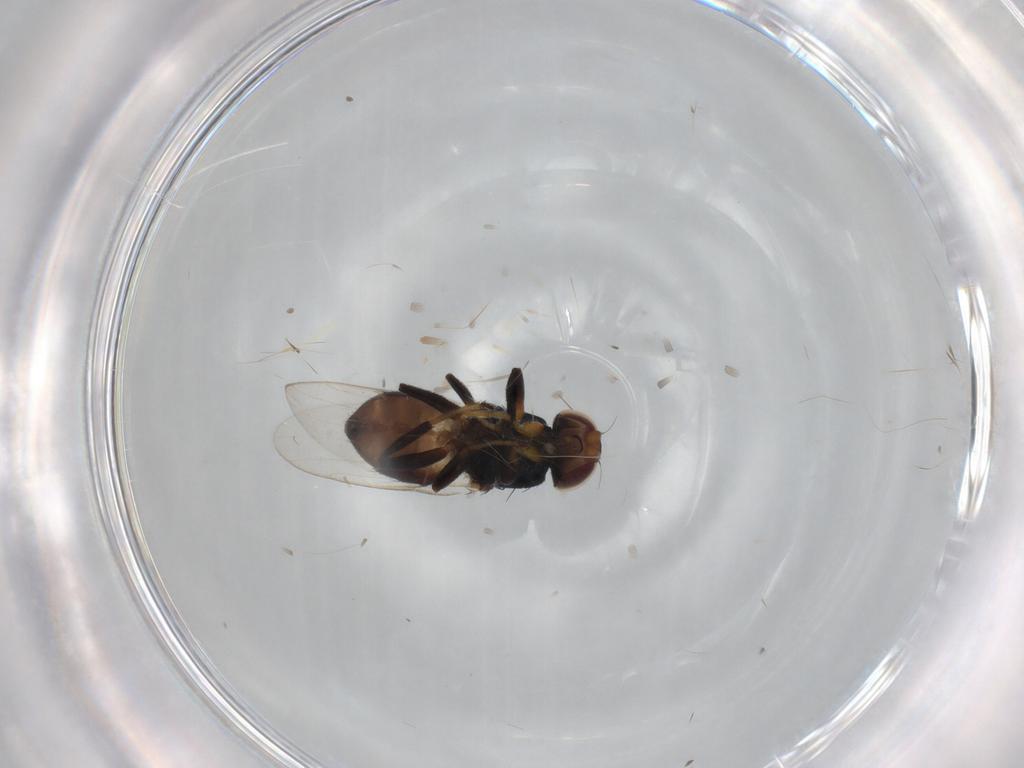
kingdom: Animalia
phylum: Arthropoda
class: Insecta
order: Diptera
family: Chloropidae
